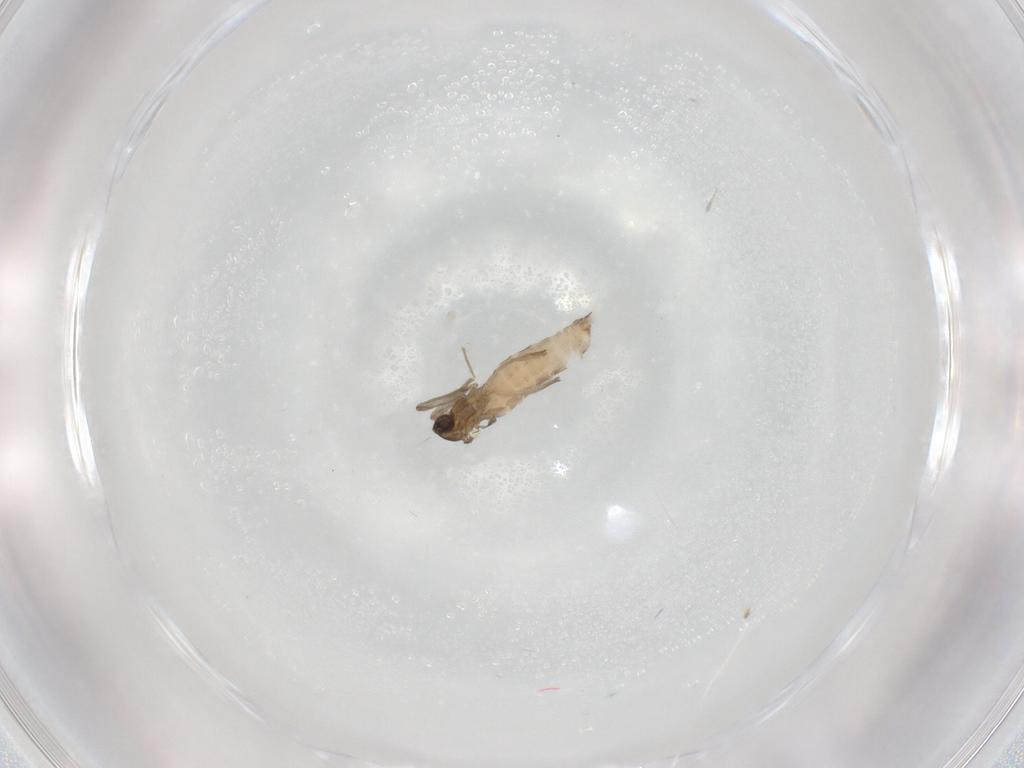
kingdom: Animalia
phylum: Arthropoda
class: Insecta
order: Diptera
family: Cecidomyiidae
